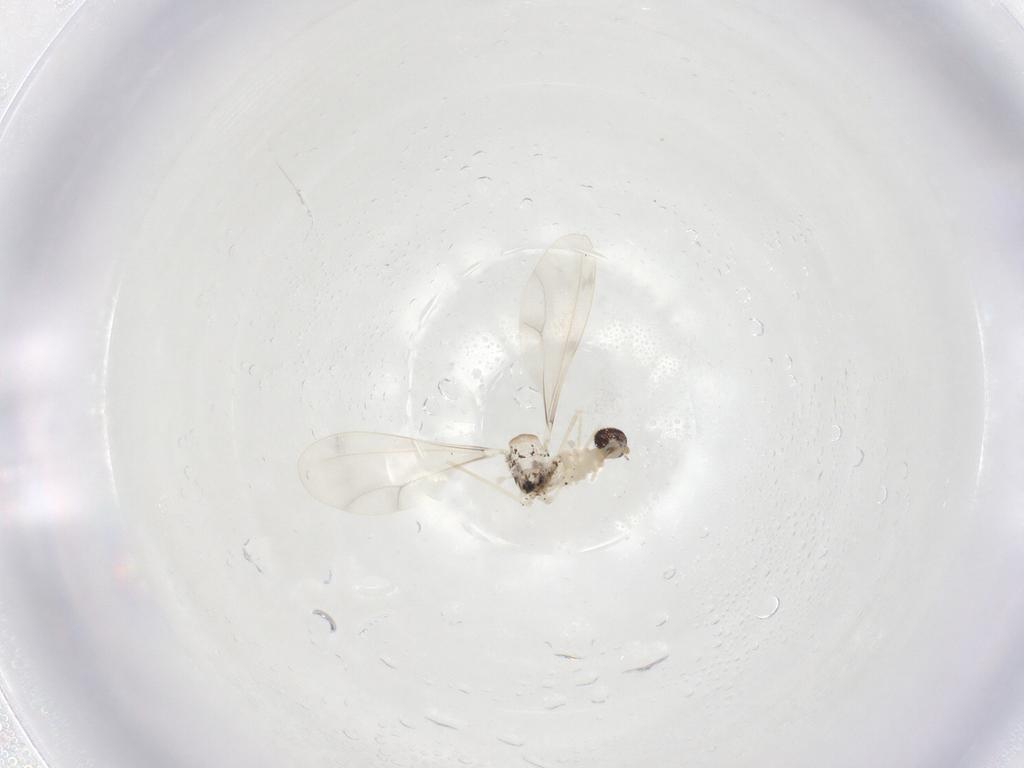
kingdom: Animalia
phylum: Arthropoda
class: Insecta
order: Diptera
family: Cecidomyiidae
